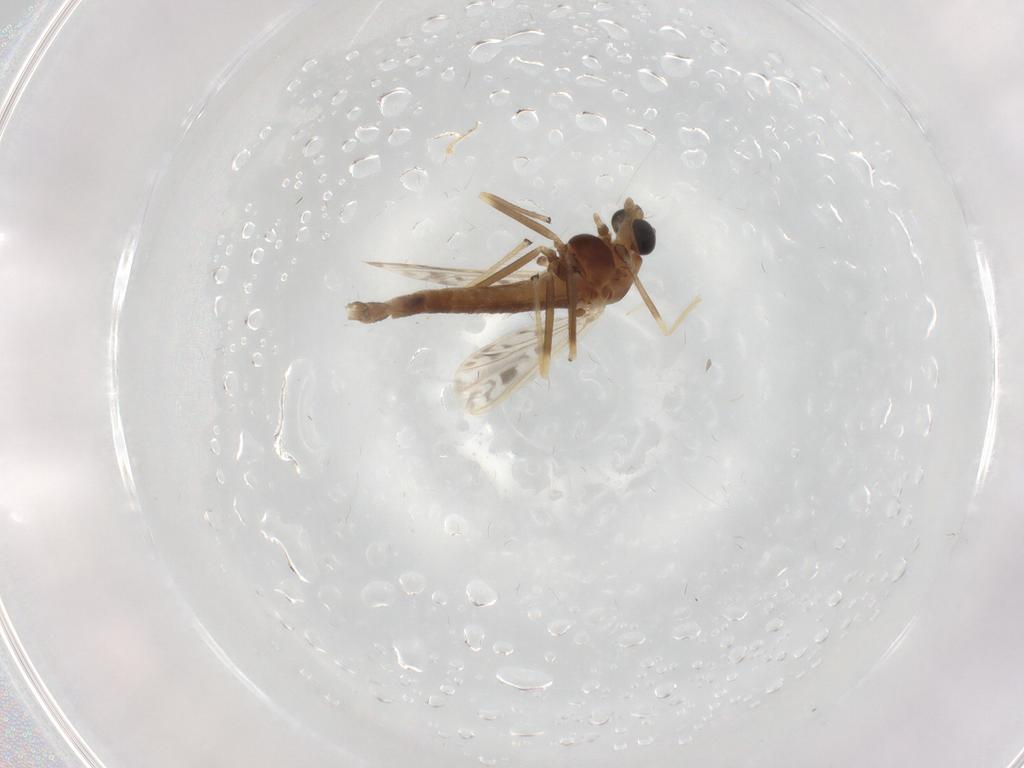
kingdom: Animalia
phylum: Arthropoda
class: Insecta
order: Diptera
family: Chironomidae
